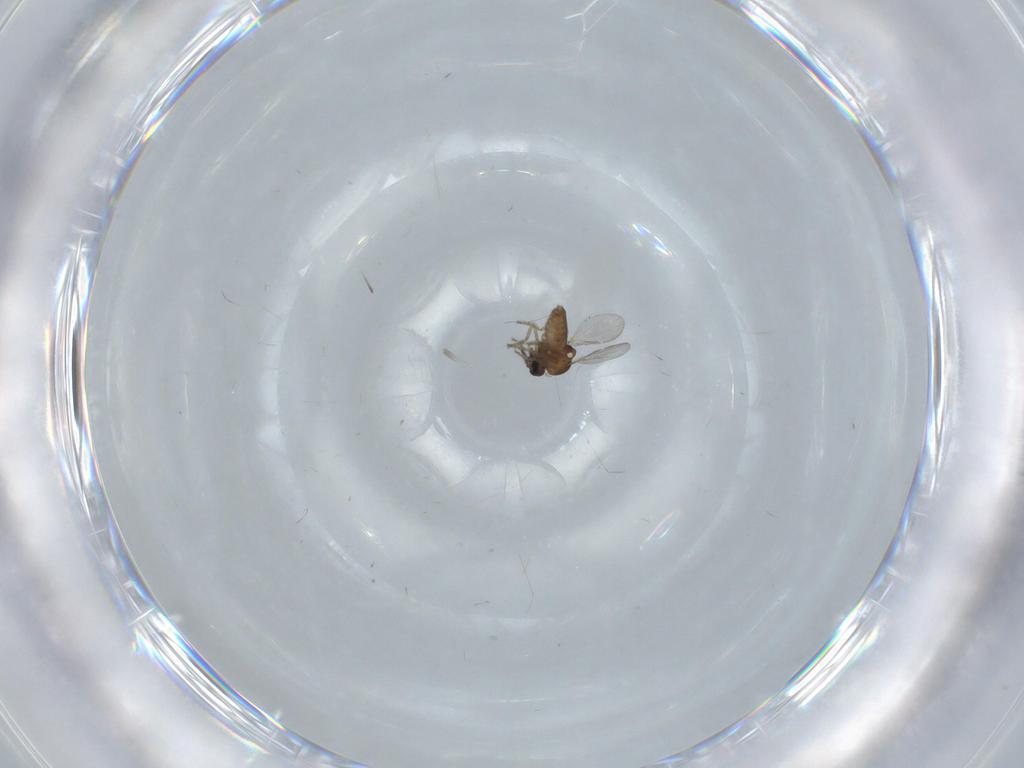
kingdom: Animalia
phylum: Arthropoda
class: Insecta
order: Diptera
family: Ceratopogonidae
